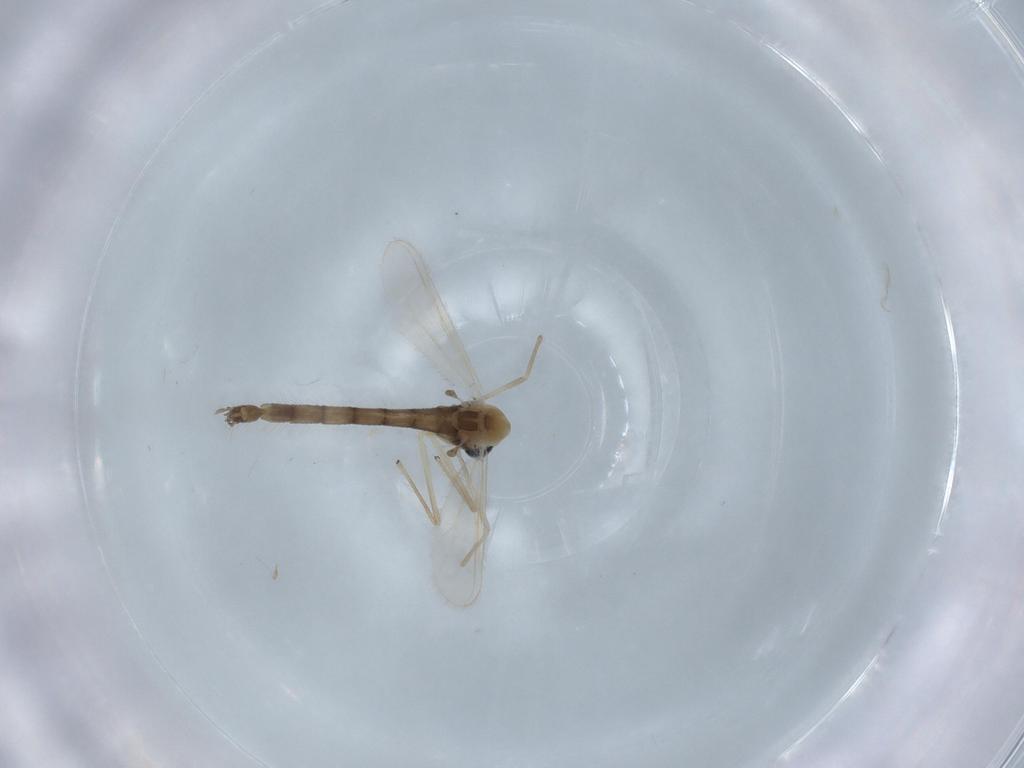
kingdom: Animalia
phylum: Arthropoda
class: Insecta
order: Diptera
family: Chironomidae
